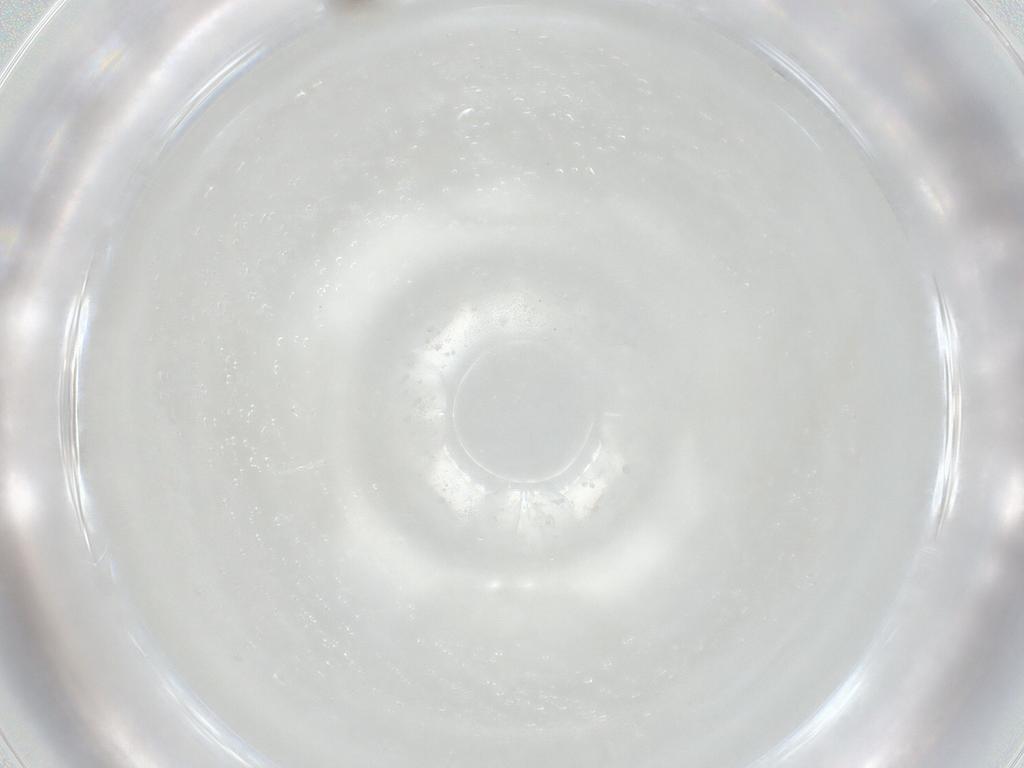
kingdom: Animalia
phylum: Arthropoda
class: Insecta
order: Hymenoptera
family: Mymaridae
